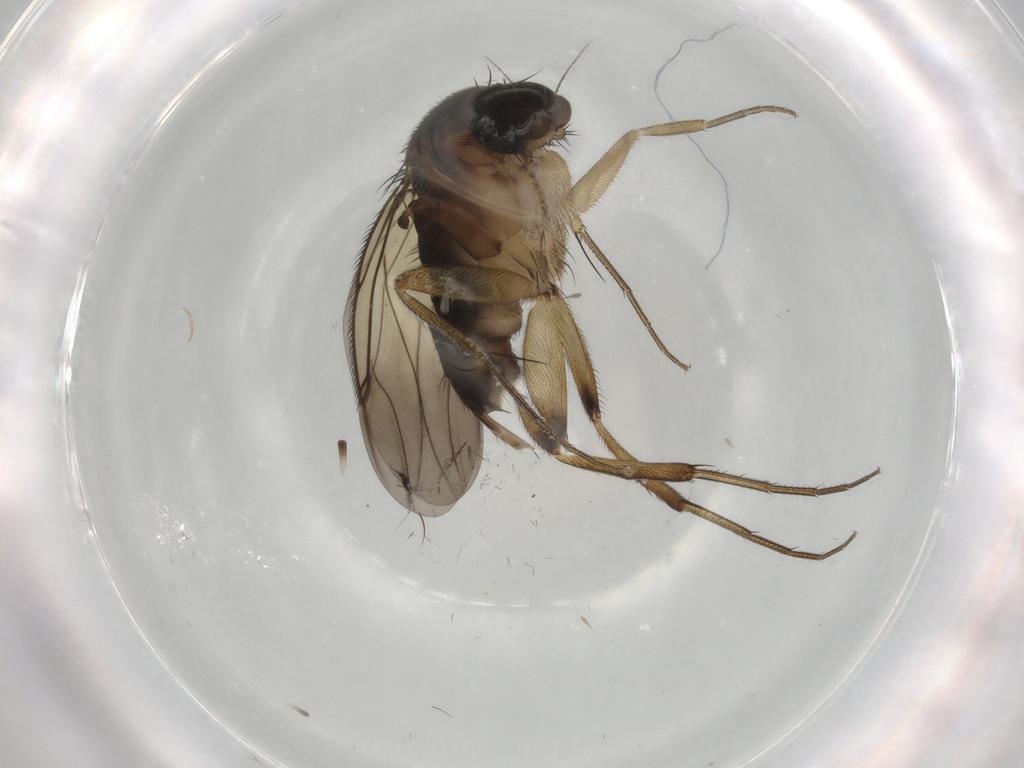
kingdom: Animalia
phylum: Arthropoda
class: Insecta
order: Diptera
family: Phoridae
